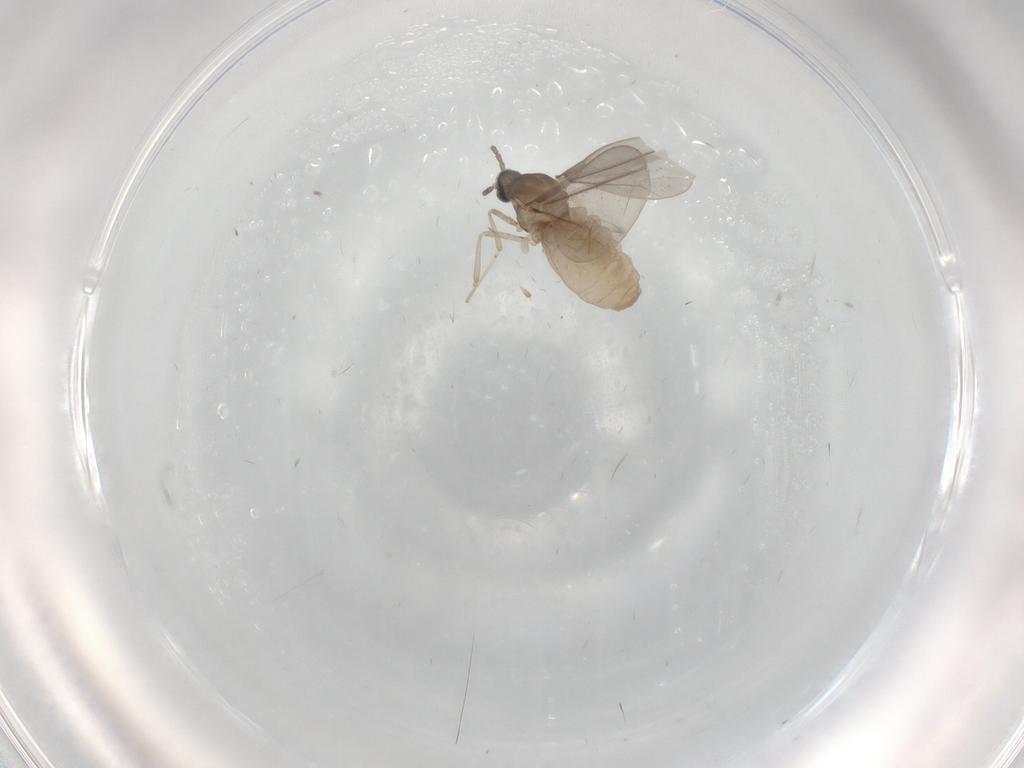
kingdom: Animalia
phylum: Arthropoda
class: Insecta
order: Diptera
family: Cecidomyiidae
